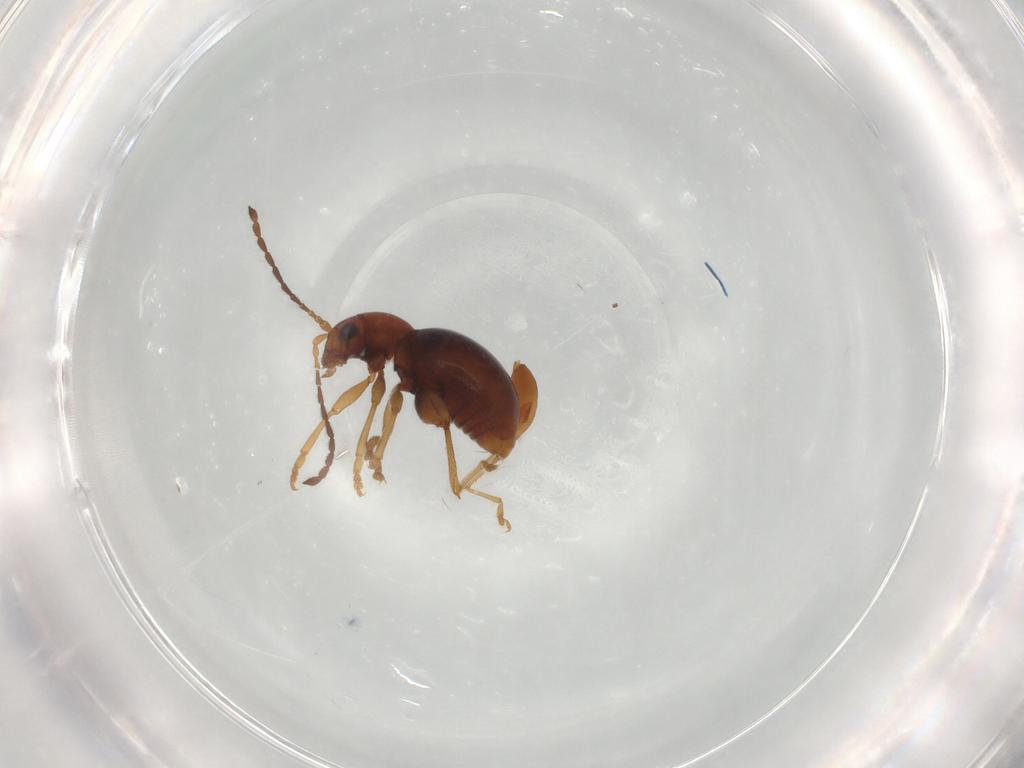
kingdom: Animalia
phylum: Arthropoda
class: Insecta
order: Coleoptera
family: Chrysomelidae
